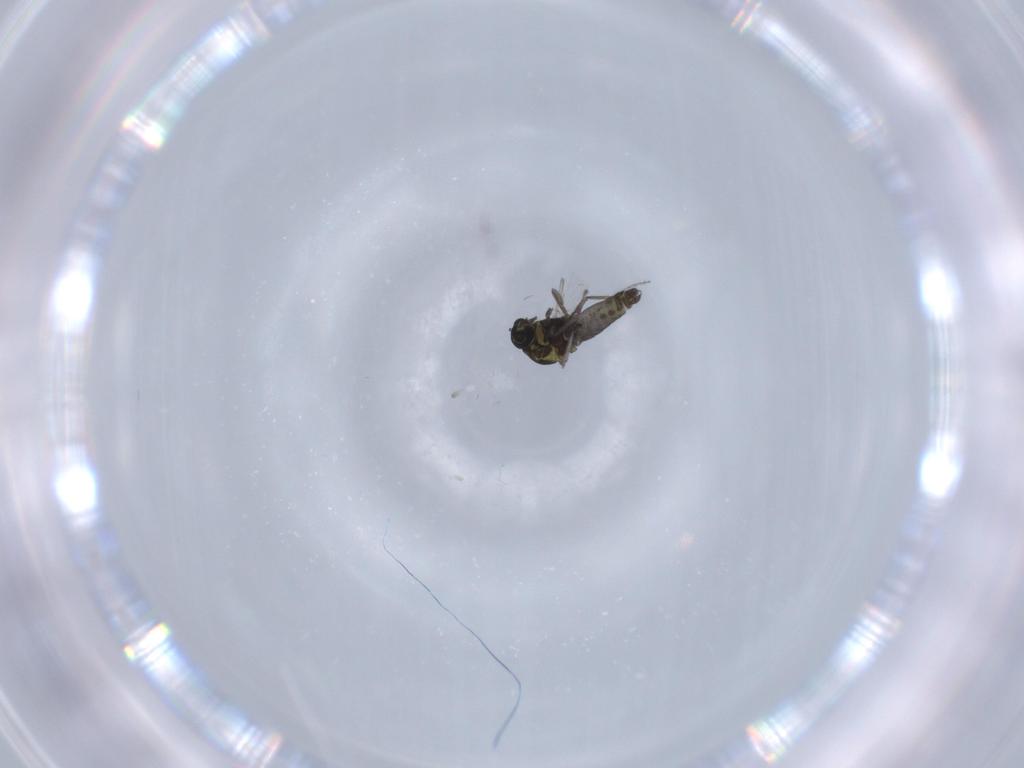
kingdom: Animalia
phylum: Arthropoda
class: Insecta
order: Diptera
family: Ceratopogonidae
